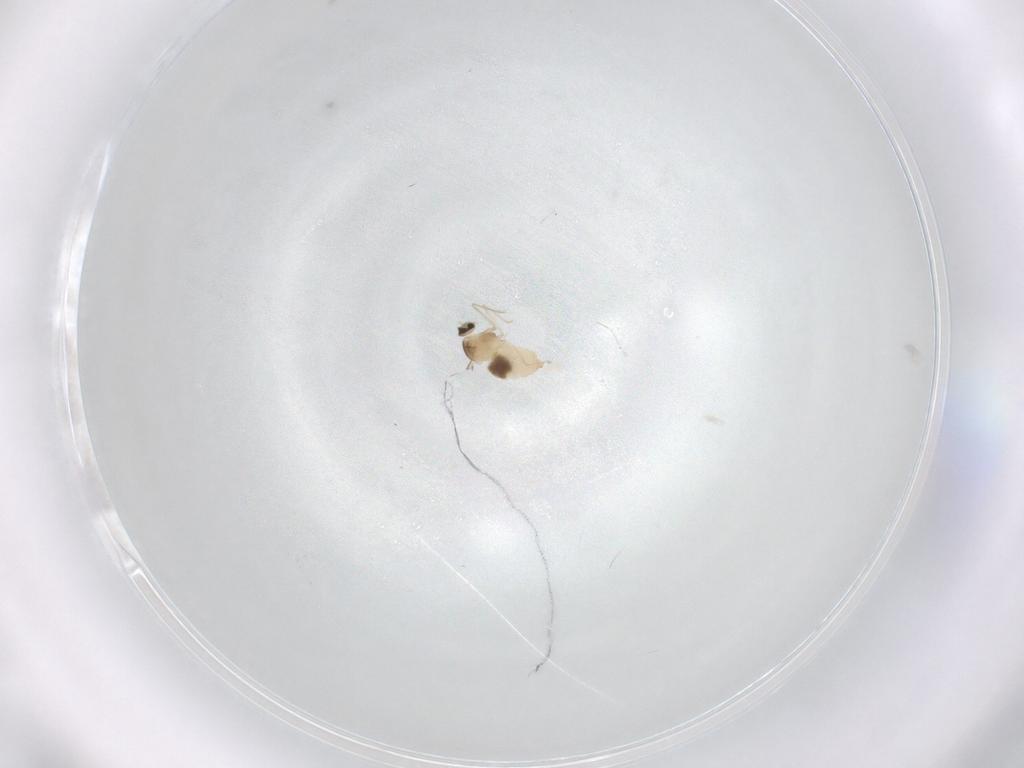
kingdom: Animalia
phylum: Arthropoda
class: Insecta
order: Diptera
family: Cecidomyiidae
